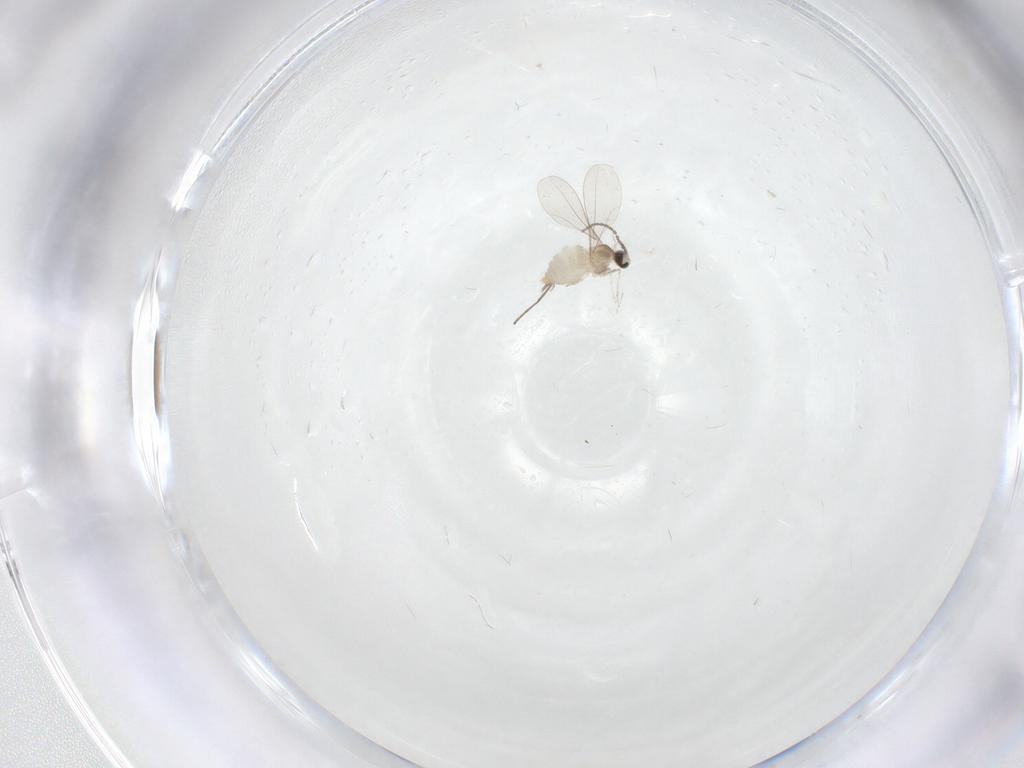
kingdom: Animalia
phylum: Arthropoda
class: Insecta
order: Diptera
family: Cecidomyiidae
